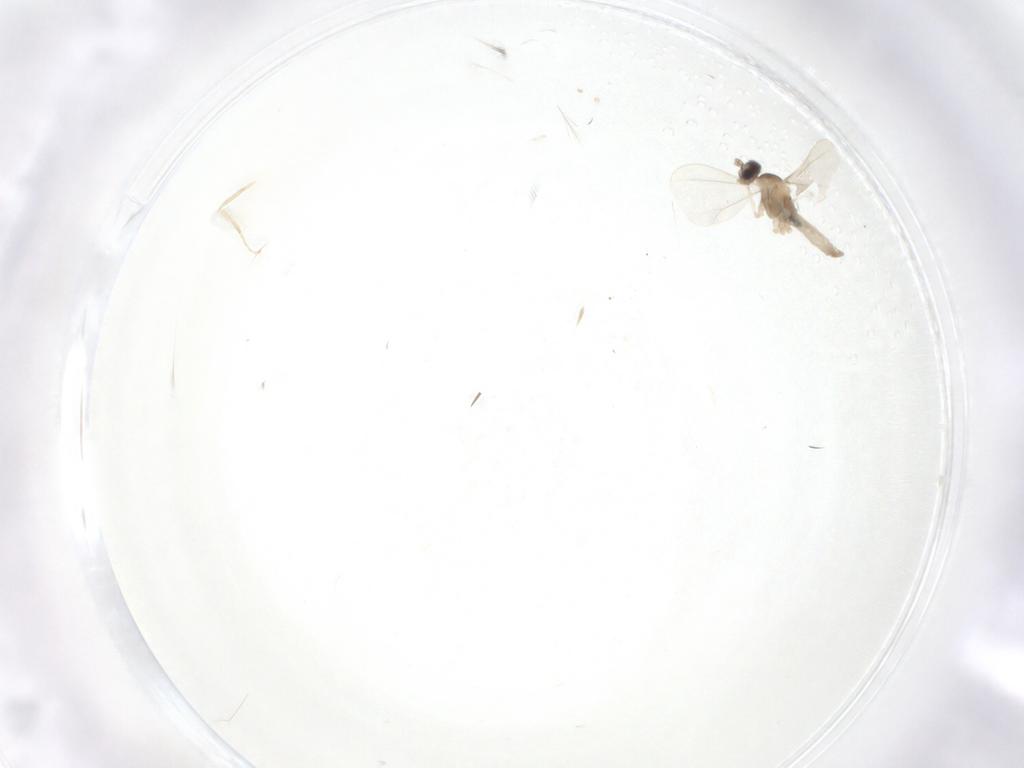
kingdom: Animalia
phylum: Arthropoda
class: Insecta
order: Diptera
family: Cecidomyiidae
